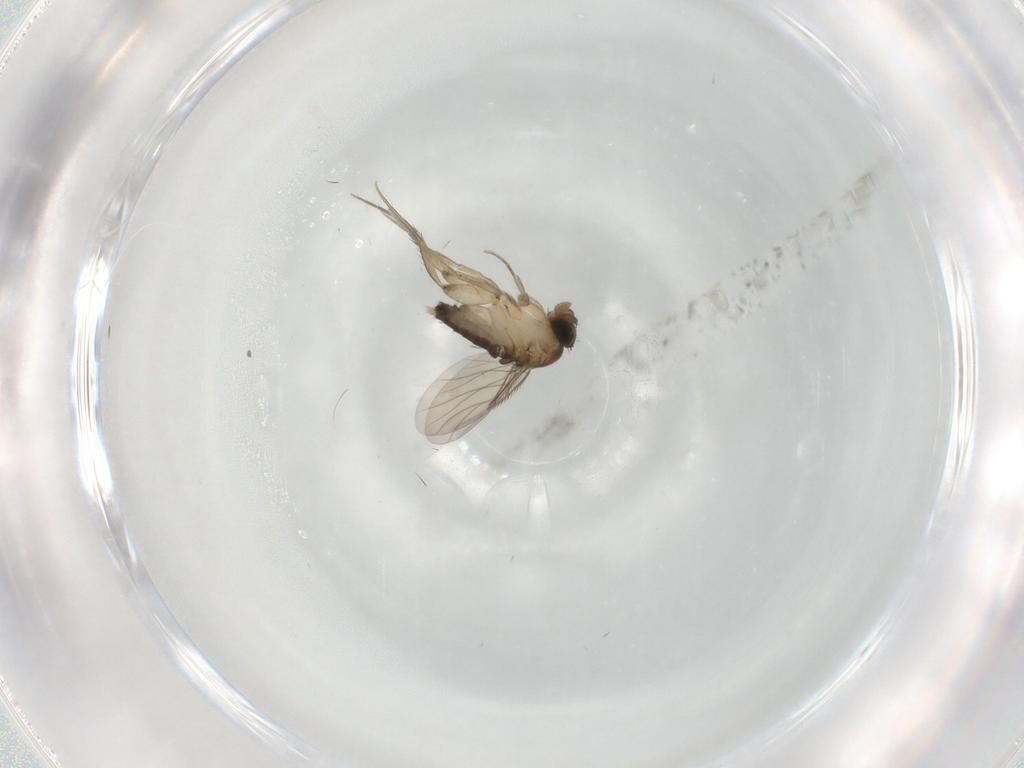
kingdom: Animalia
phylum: Arthropoda
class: Insecta
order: Diptera
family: Phoridae
